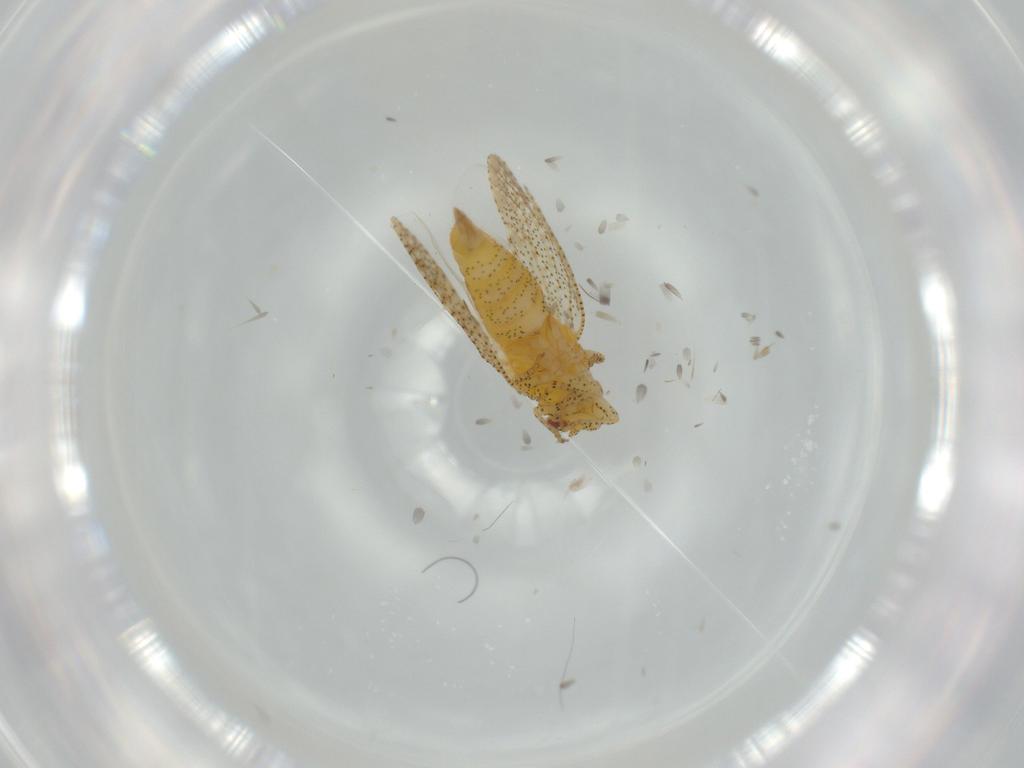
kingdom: Animalia
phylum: Arthropoda
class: Insecta
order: Hemiptera
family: Psyllidae
